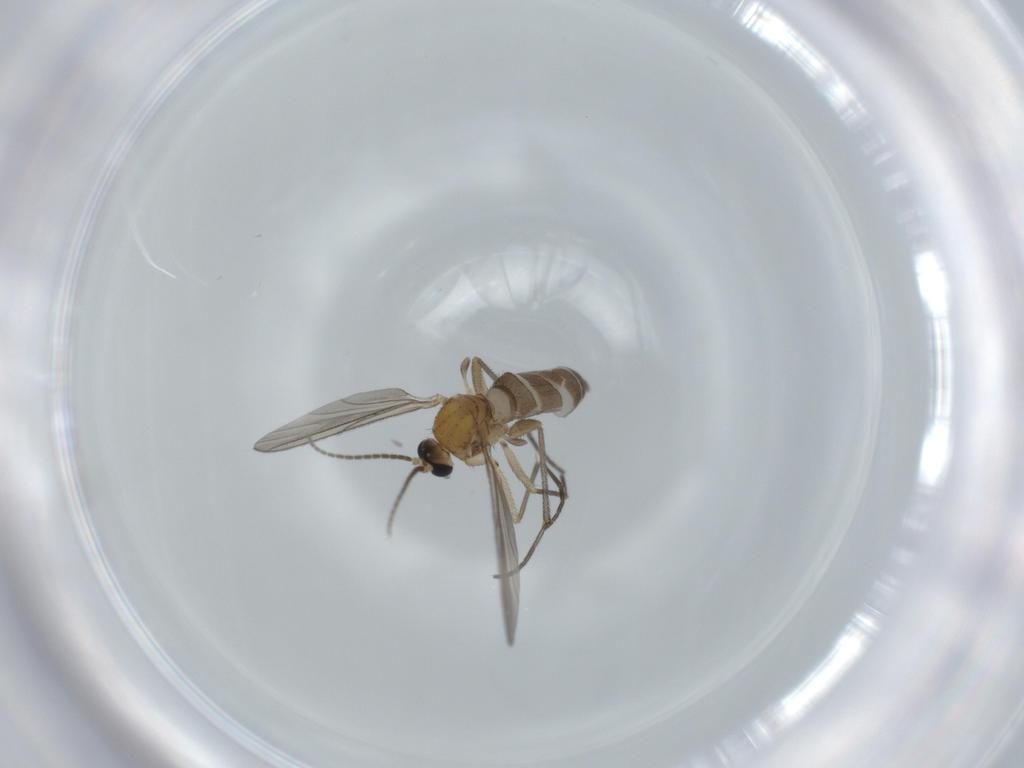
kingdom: Animalia
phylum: Arthropoda
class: Insecta
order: Diptera
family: Sciaridae
